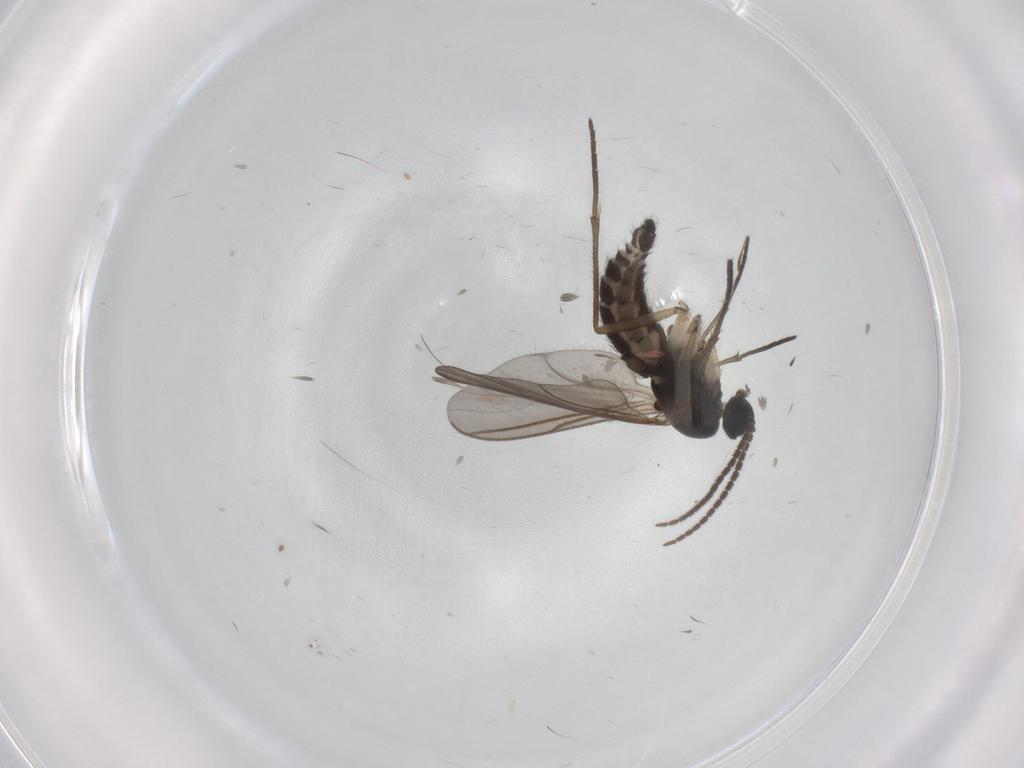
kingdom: Animalia
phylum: Arthropoda
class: Insecta
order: Diptera
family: Sciaridae
